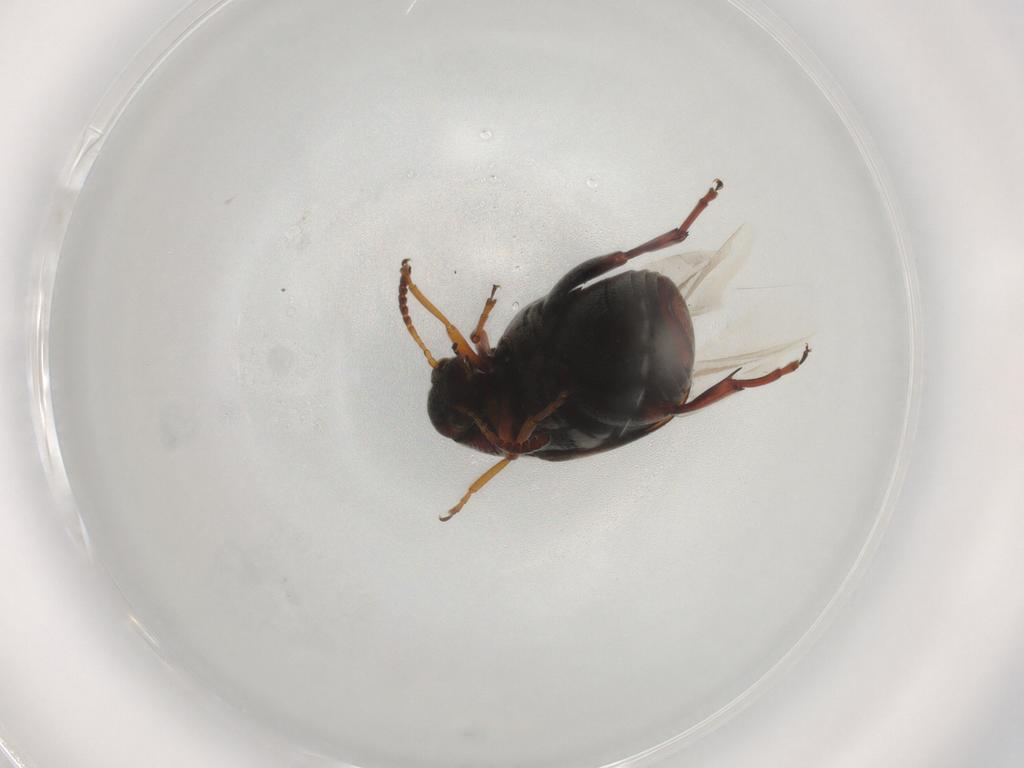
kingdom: Animalia
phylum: Arthropoda
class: Insecta
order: Coleoptera
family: Chrysomelidae
